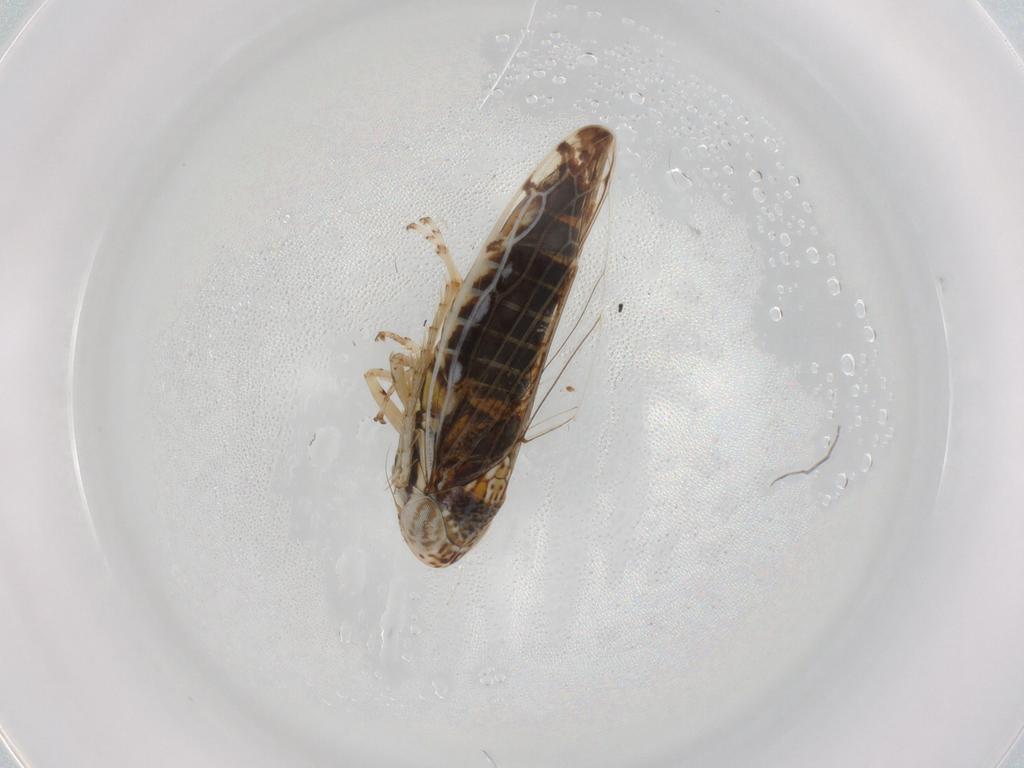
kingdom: Animalia
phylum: Arthropoda
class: Insecta
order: Hemiptera
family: Cicadellidae
